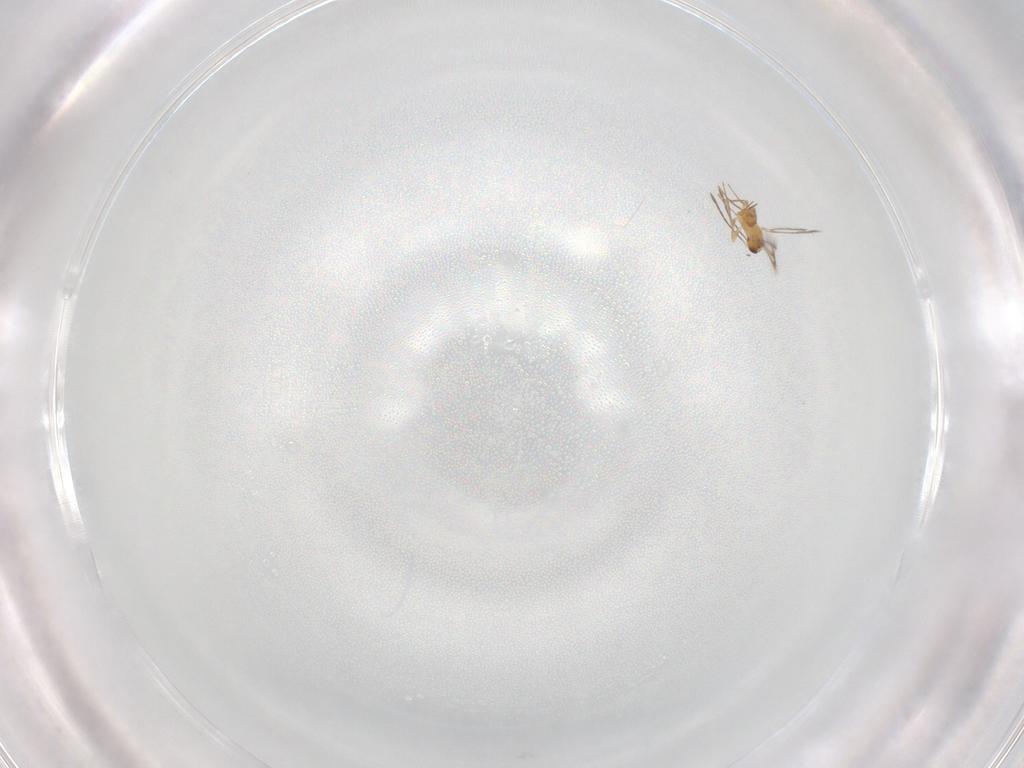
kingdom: Animalia
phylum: Arthropoda
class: Insecta
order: Hymenoptera
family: Mymaridae
